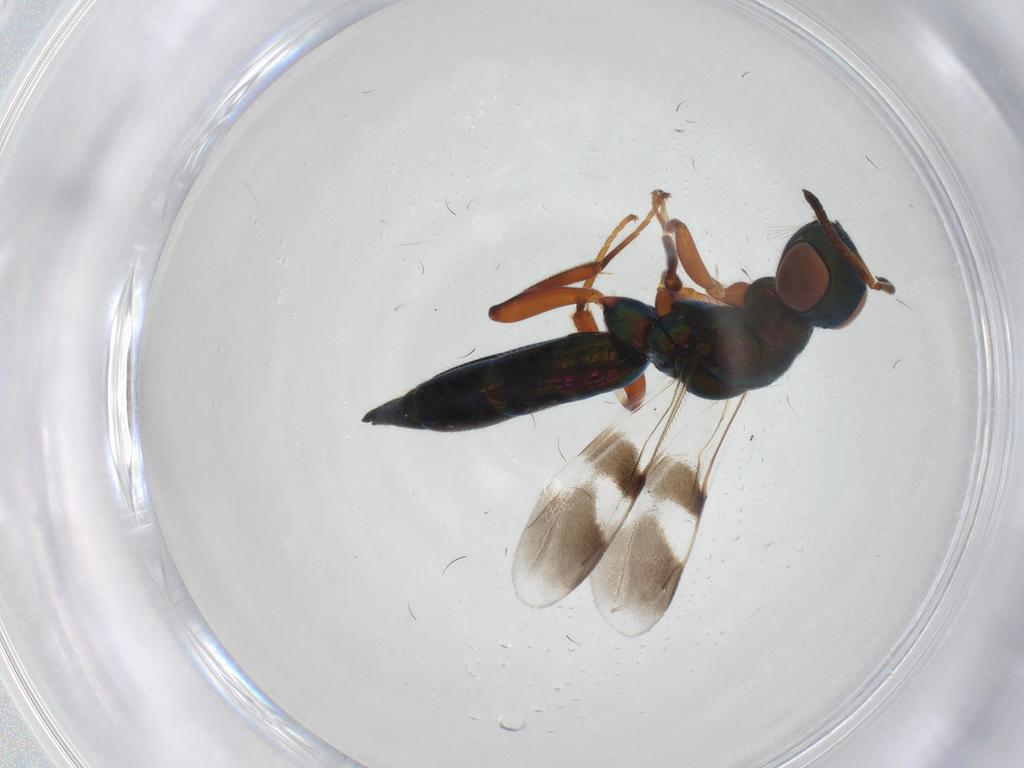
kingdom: Animalia
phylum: Arthropoda
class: Insecta
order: Hymenoptera
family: Cleonyminae
